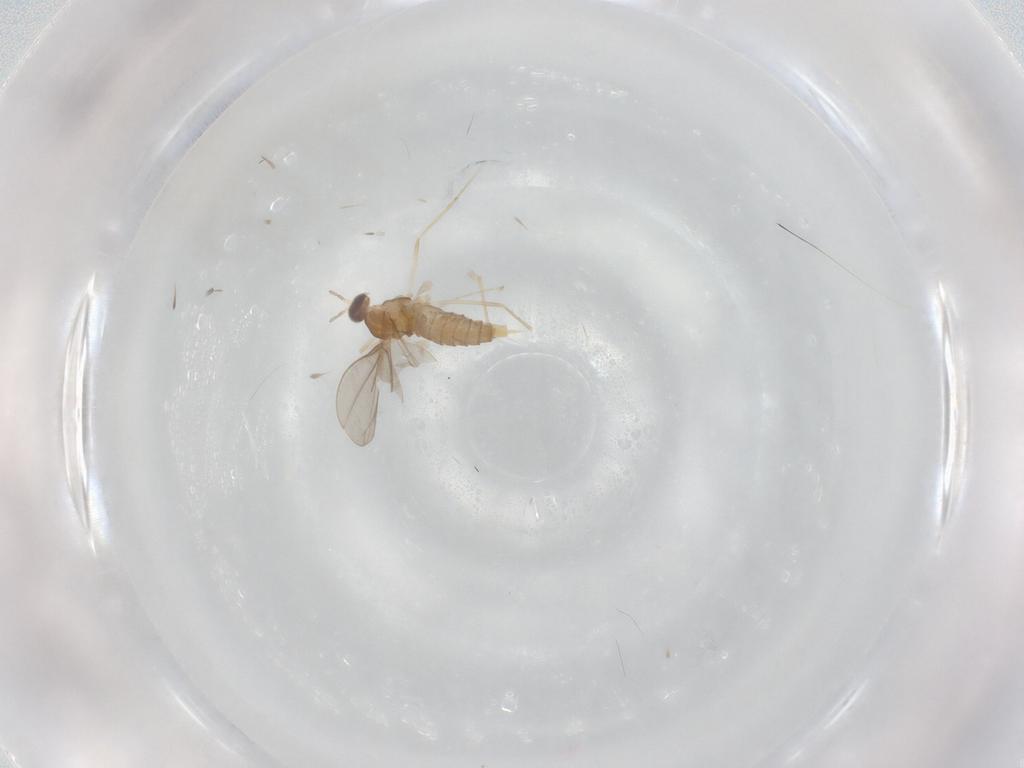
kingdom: Animalia
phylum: Arthropoda
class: Insecta
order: Diptera
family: Cecidomyiidae
